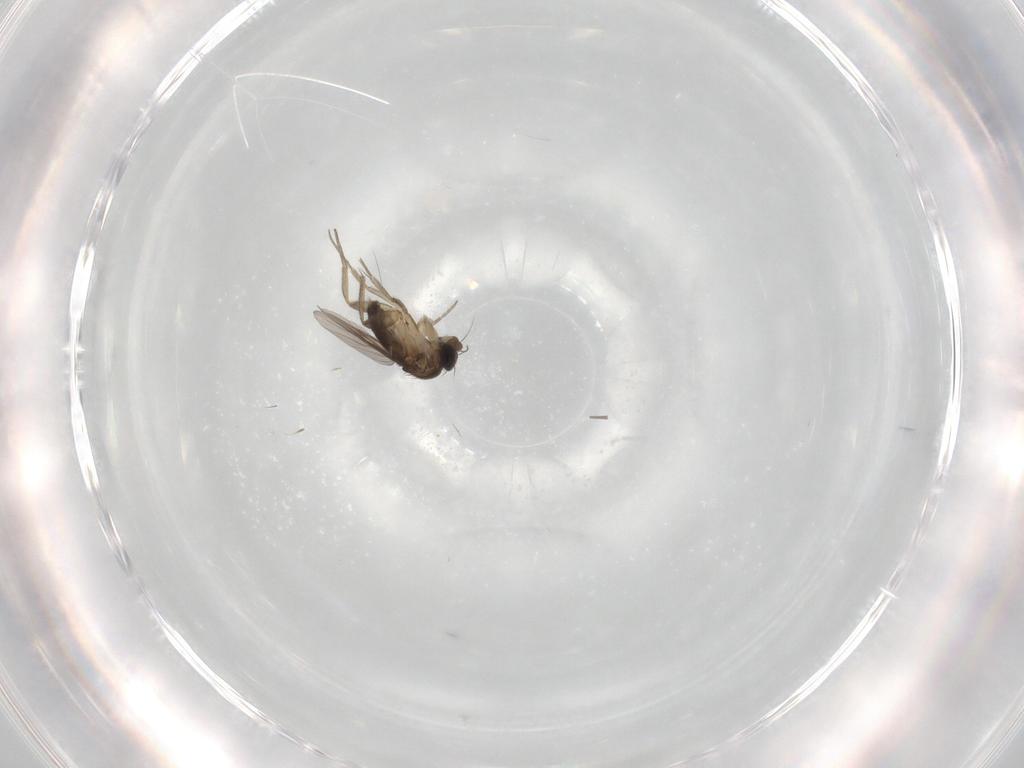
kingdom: Animalia
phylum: Arthropoda
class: Insecta
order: Diptera
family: Phoridae
